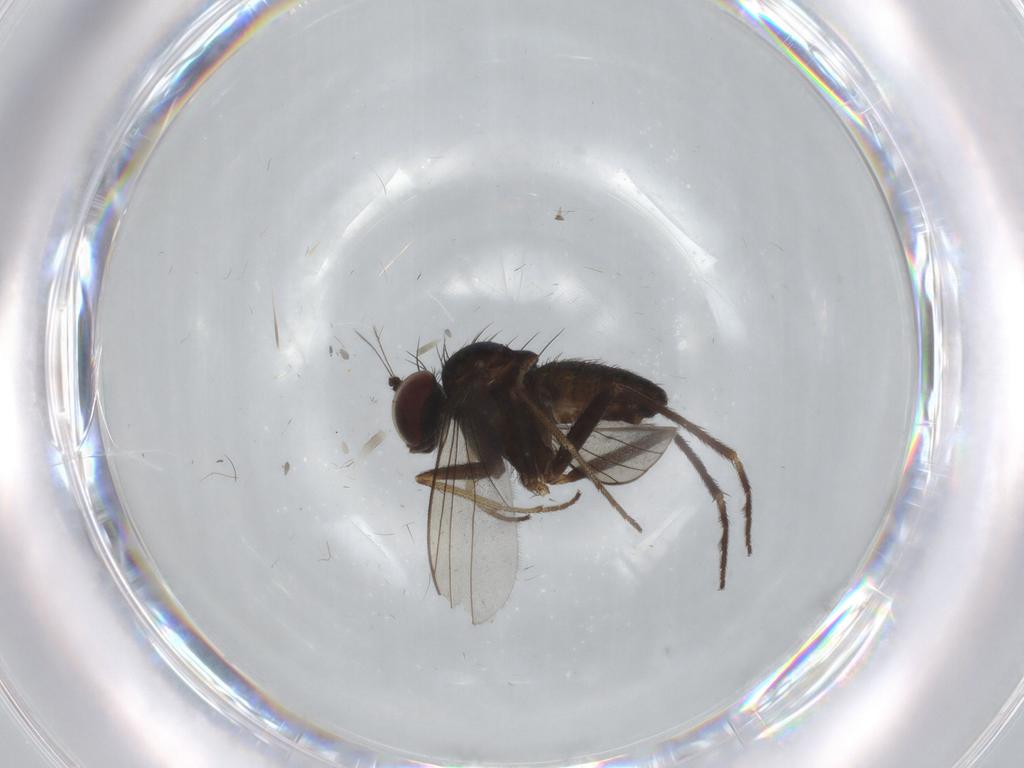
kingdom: Animalia
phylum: Arthropoda
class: Insecta
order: Diptera
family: Dolichopodidae
